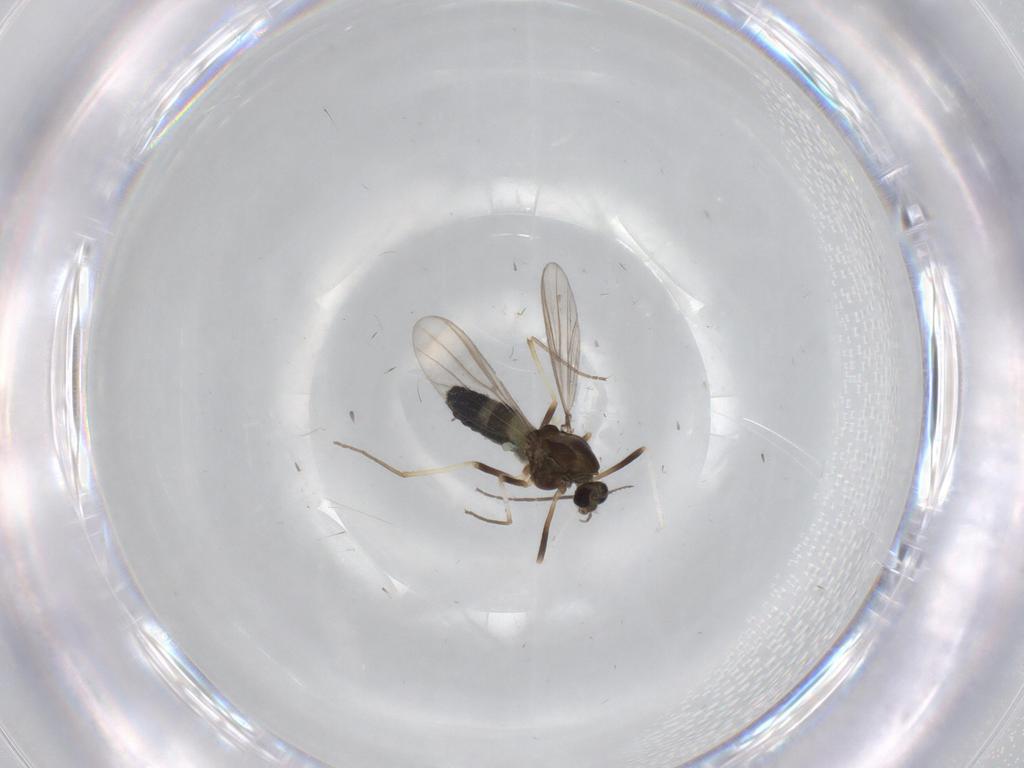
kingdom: Animalia
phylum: Arthropoda
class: Insecta
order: Diptera
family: Chironomidae
